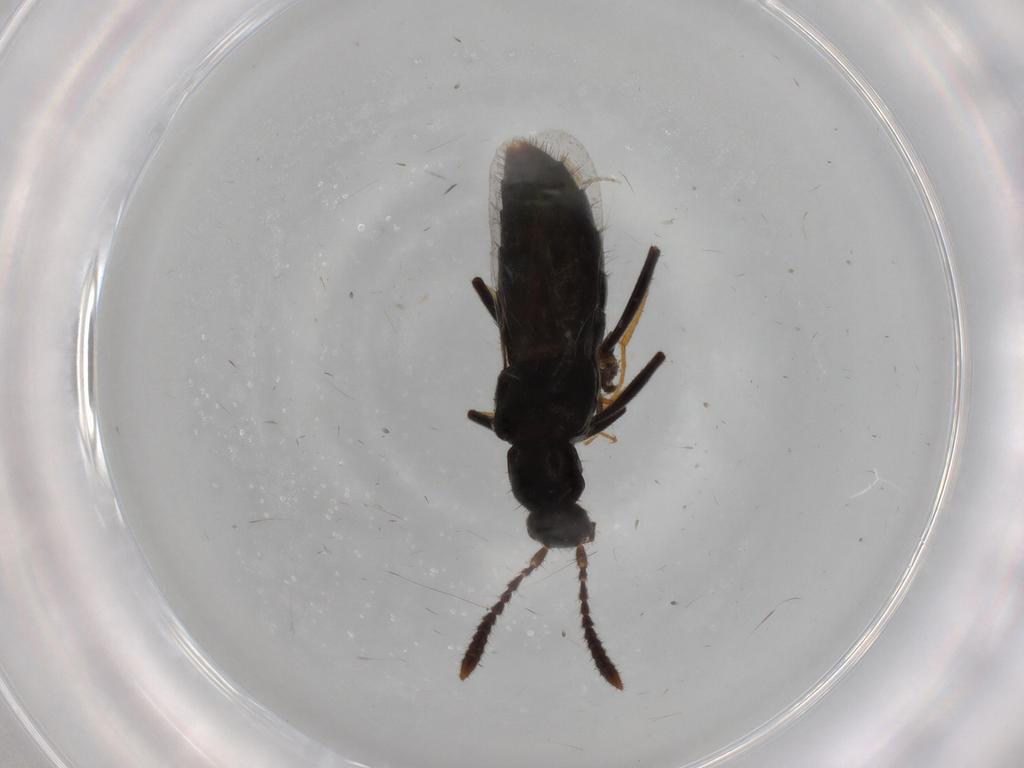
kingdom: Animalia
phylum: Arthropoda
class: Insecta
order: Coleoptera
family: Staphylinidae
